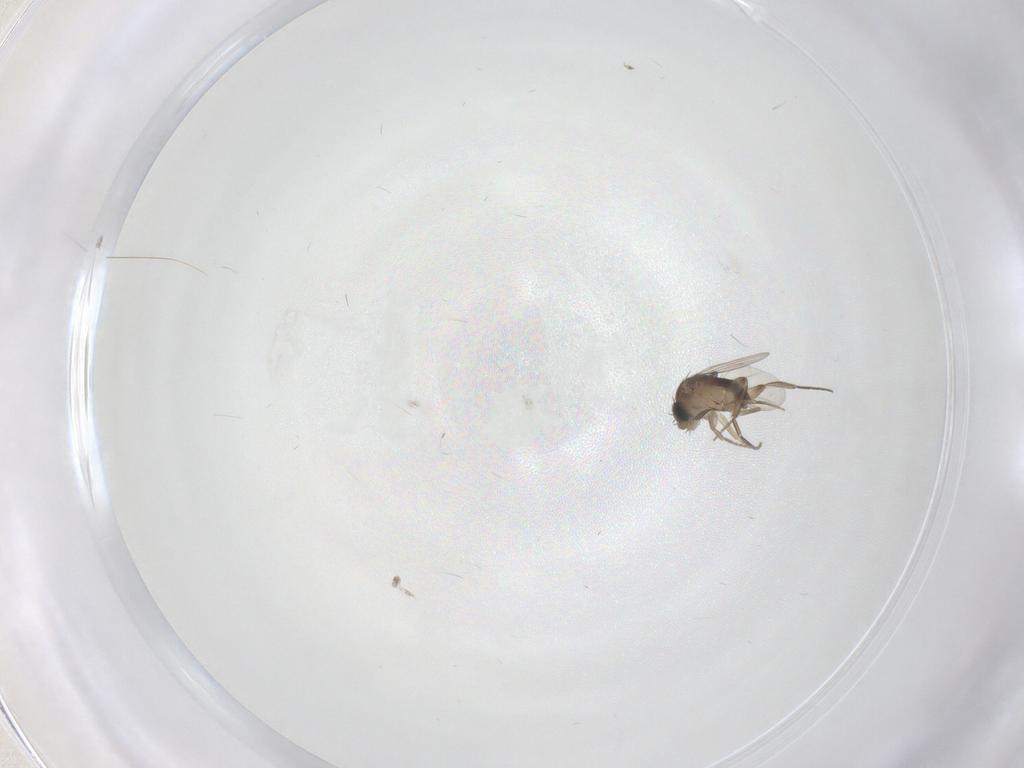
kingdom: Animalia
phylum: Arthropoda
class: Insecta
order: Diptera
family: Phoridae
